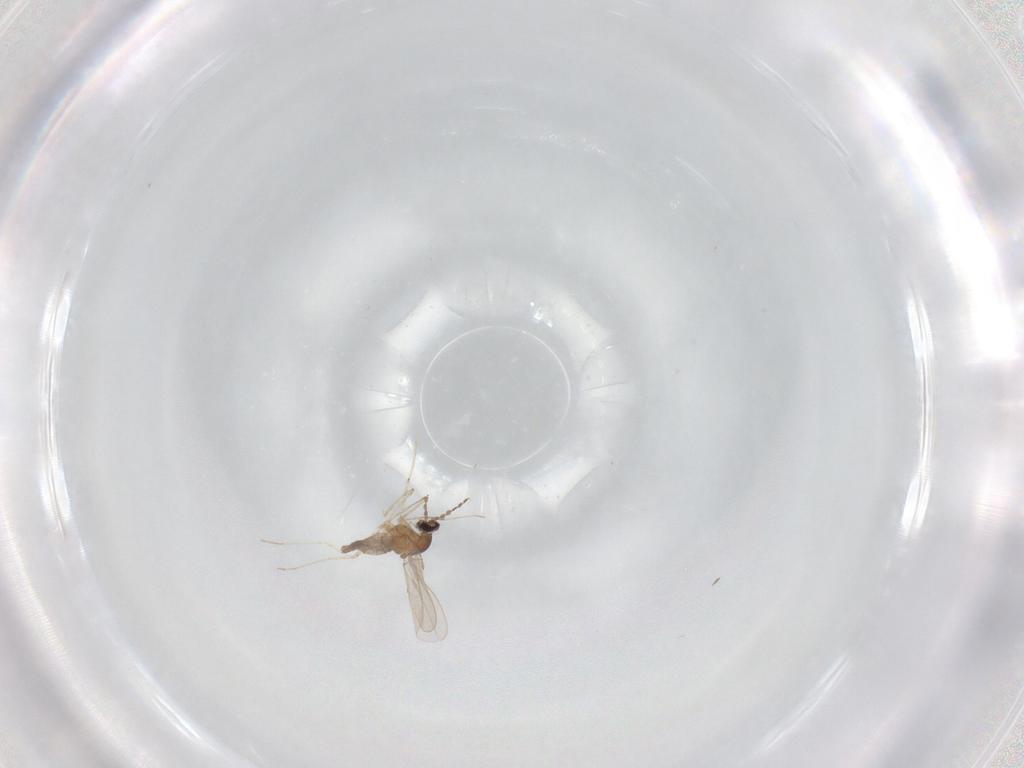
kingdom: Animalia
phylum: Arthropoda
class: Insecta
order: Diptera
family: Cecidomyiidae
